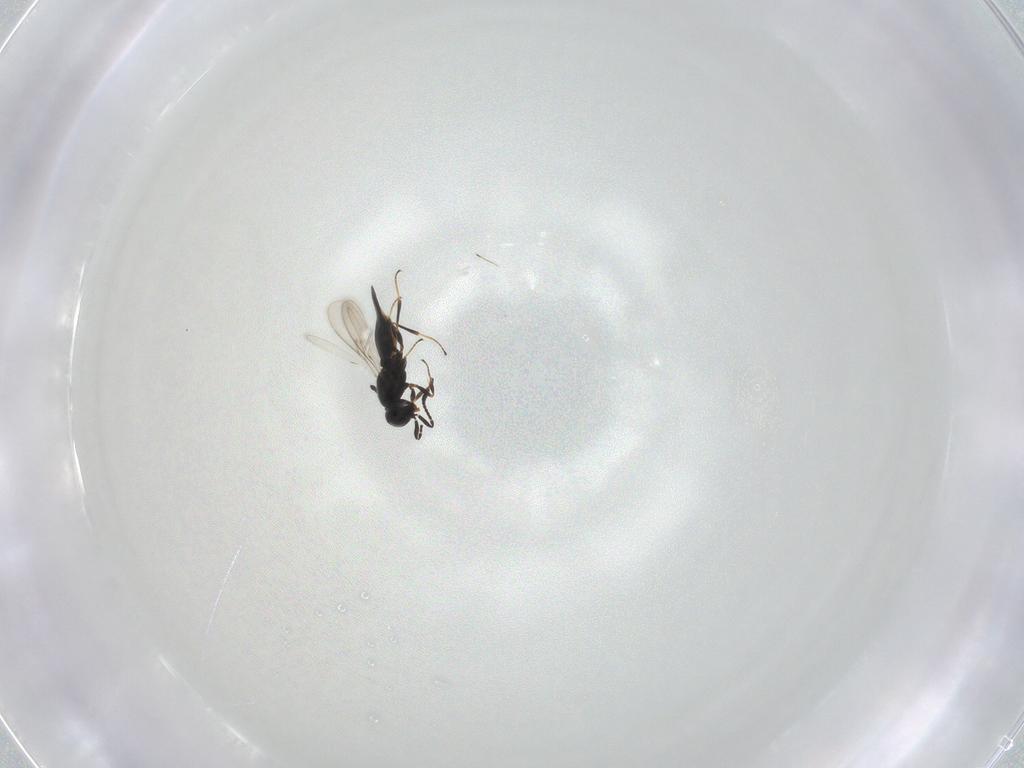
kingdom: Animalia
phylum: Arthropoda
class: Insecta
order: Hymenoptera
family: Scelionidae
